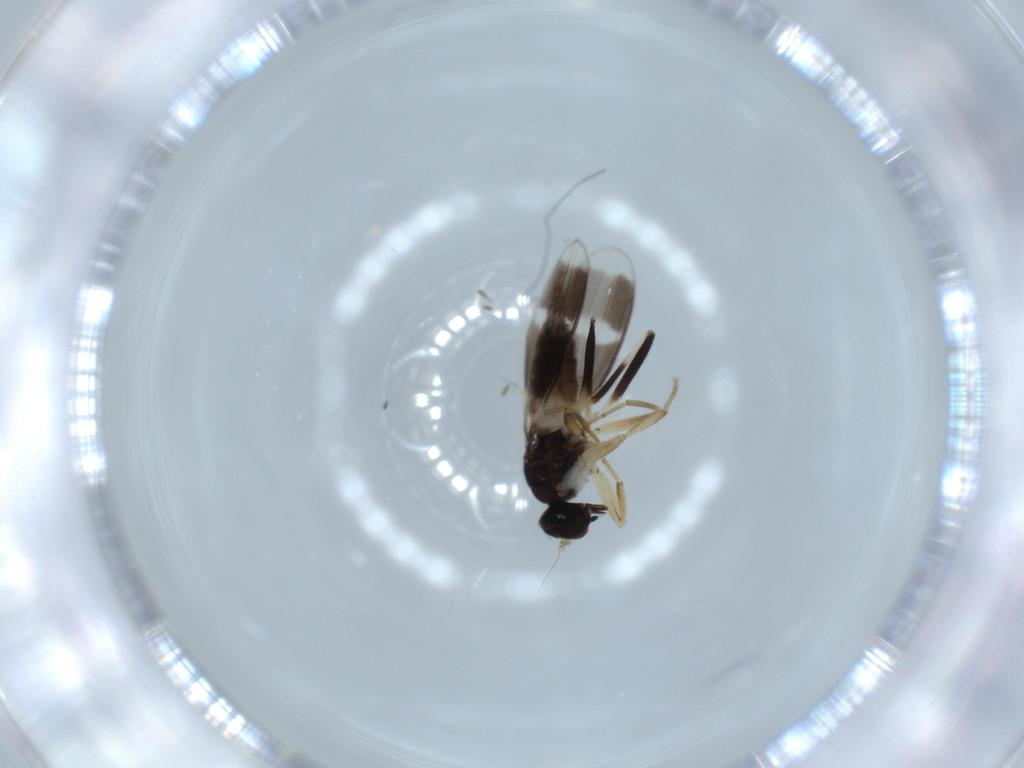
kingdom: Animalia
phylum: Arthropoda
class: Insecta
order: Diptera
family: Hybotidae
